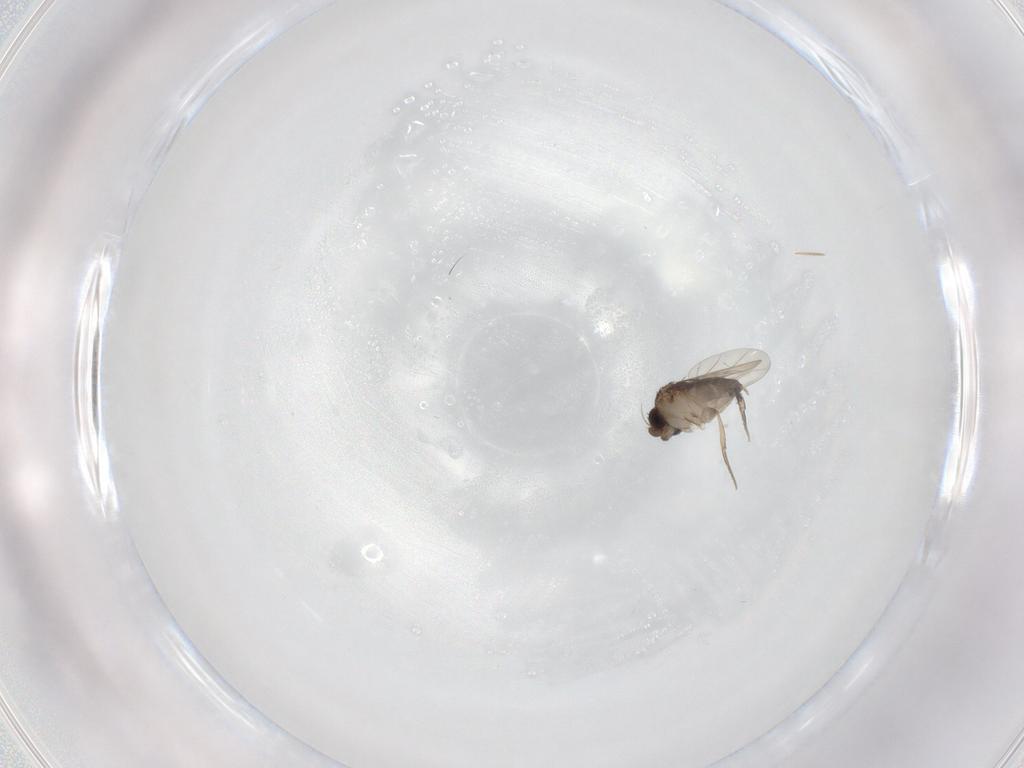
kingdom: Animalia
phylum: Arthropoda
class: Insecta
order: Diptera
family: Phoridae
